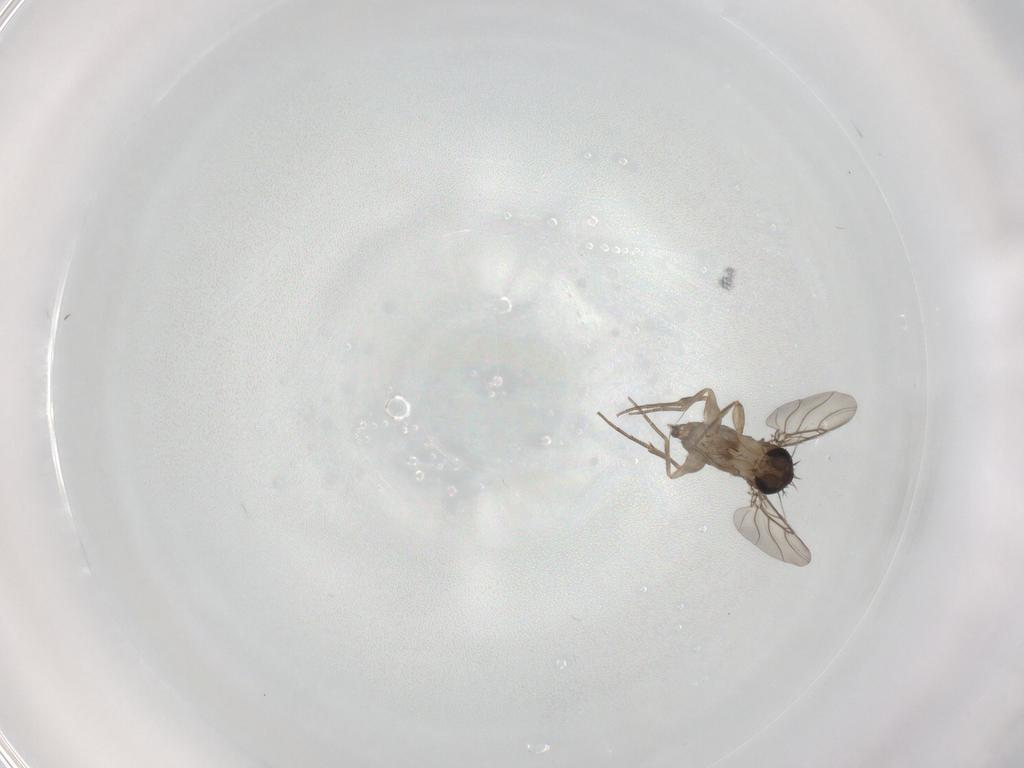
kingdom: Animalia
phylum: Arthropoda
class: Insecta
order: Diptera
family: Phoridae
